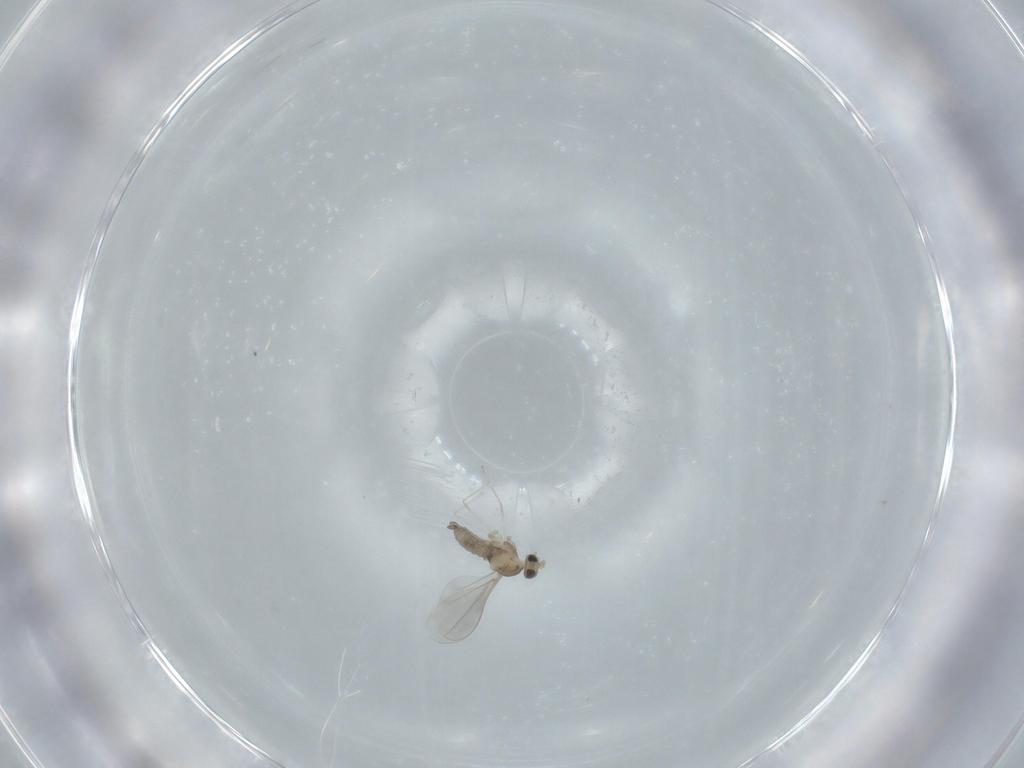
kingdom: Animalia
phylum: Arthropoda
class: Insecta
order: Diptera
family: Cecidomyiidae
